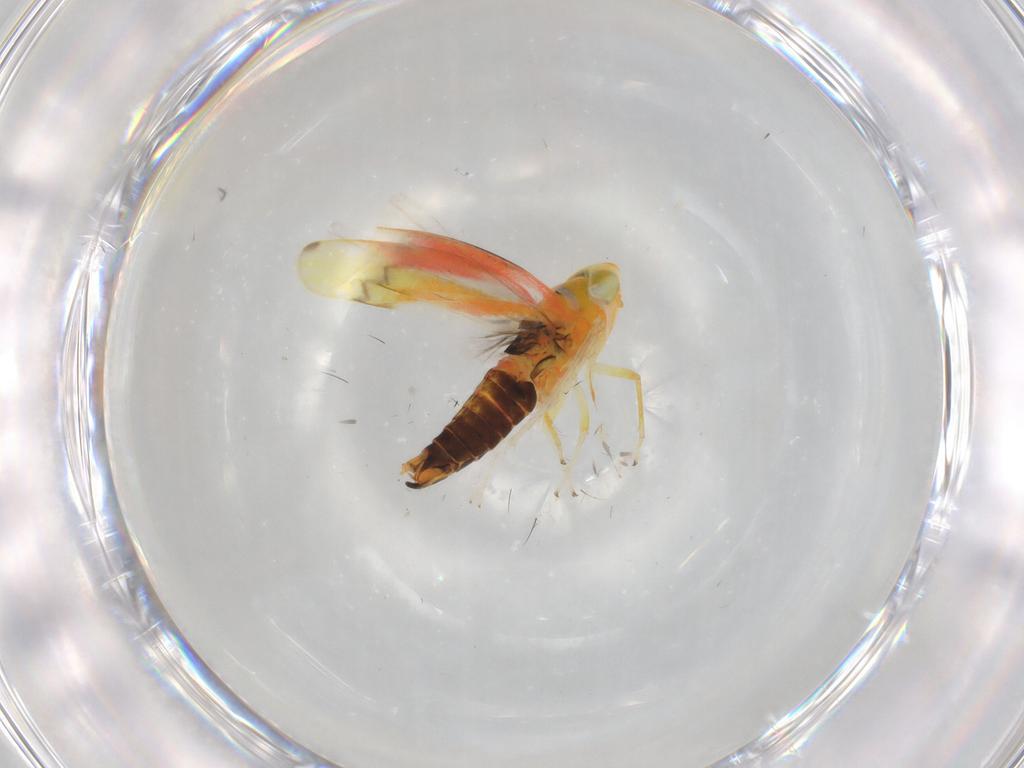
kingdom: Animalia
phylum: Arthropoda
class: Insecta
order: Hemiptera
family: Cicadellidae
